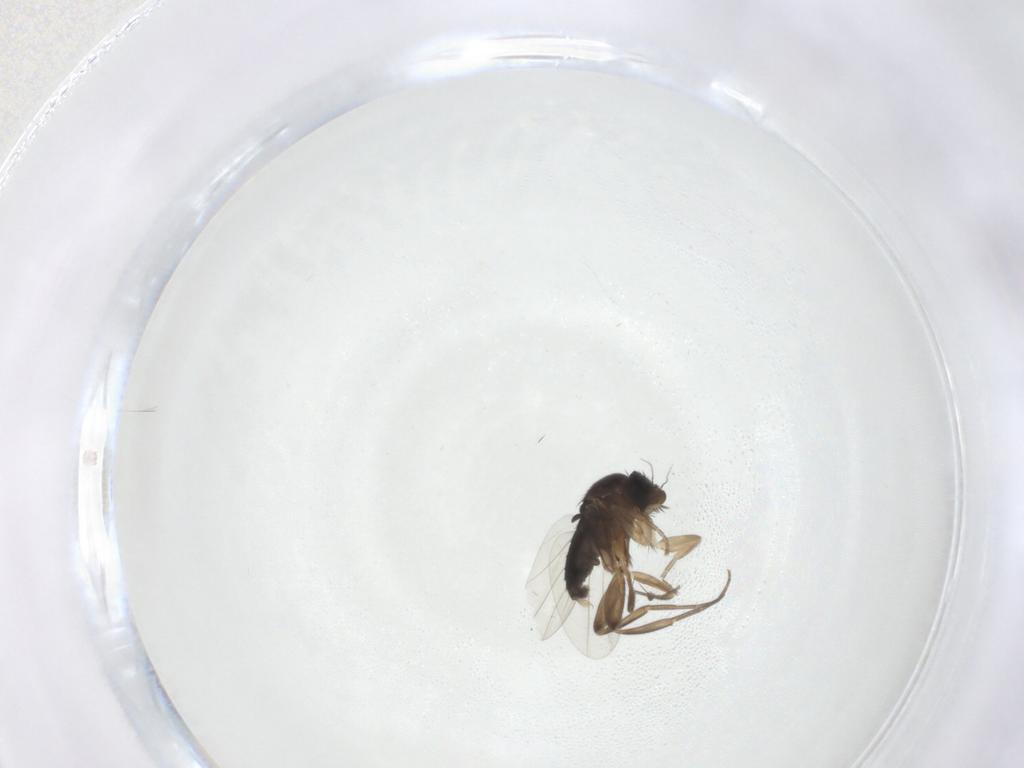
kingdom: Animalia
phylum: Arthropoda
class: Insecta
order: Diptera
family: Phoridae
